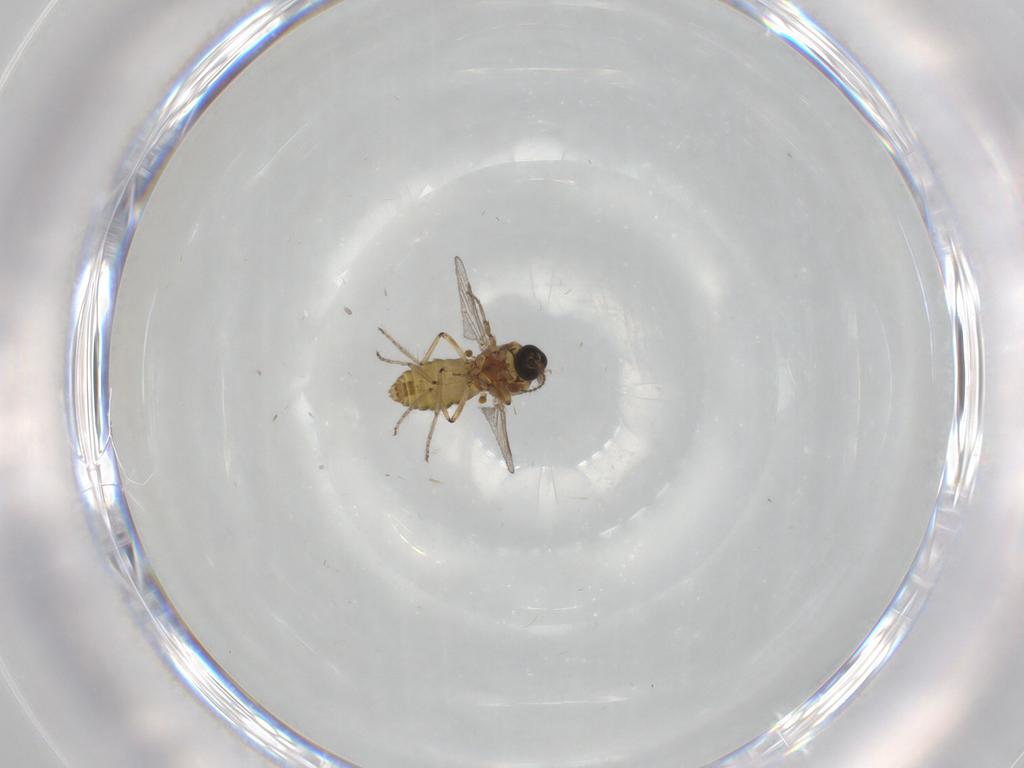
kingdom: Animalia
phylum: Arthropoda
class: Insecta
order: Diptera
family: Ceratopogonidae
